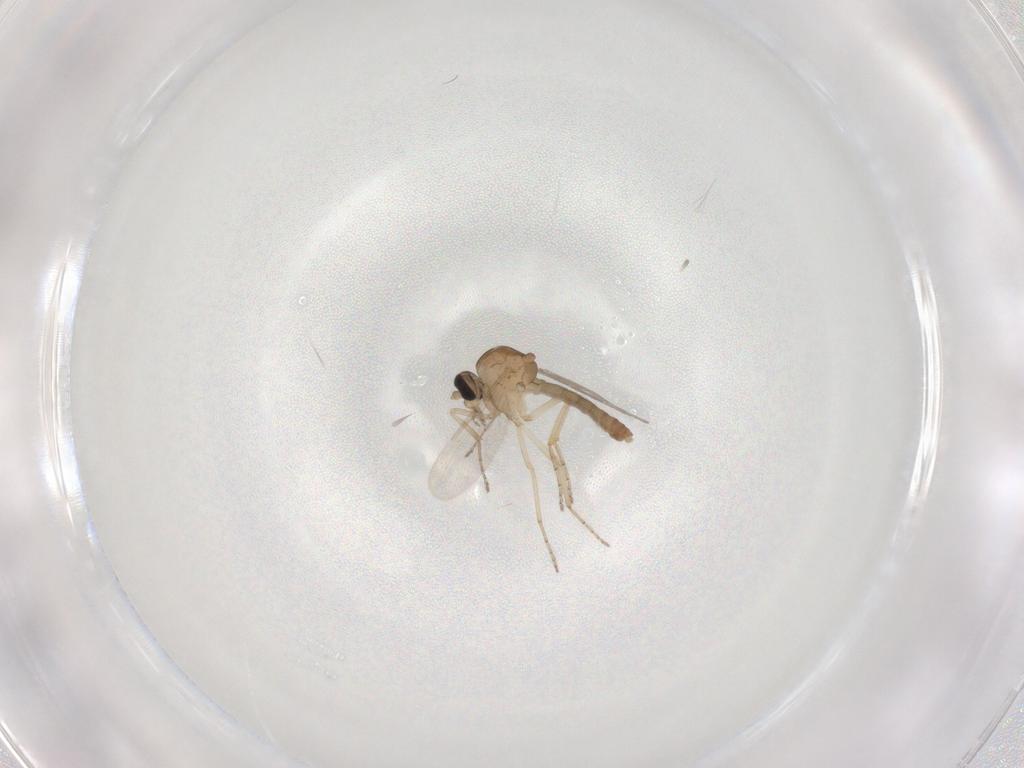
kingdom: Animalia
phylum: Arthropoda
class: Insecta
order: Diptera
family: Ceratopogonidae
